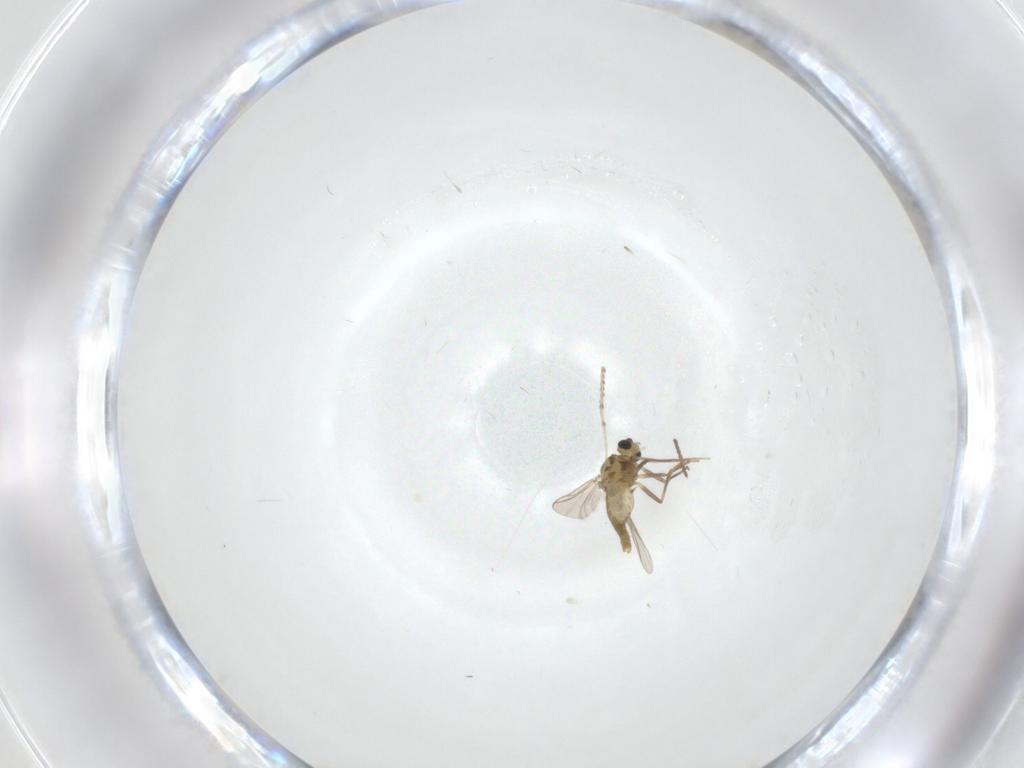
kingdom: Animalia
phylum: Arthropoda
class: Insecta
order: Diptera
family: Chironomidae
